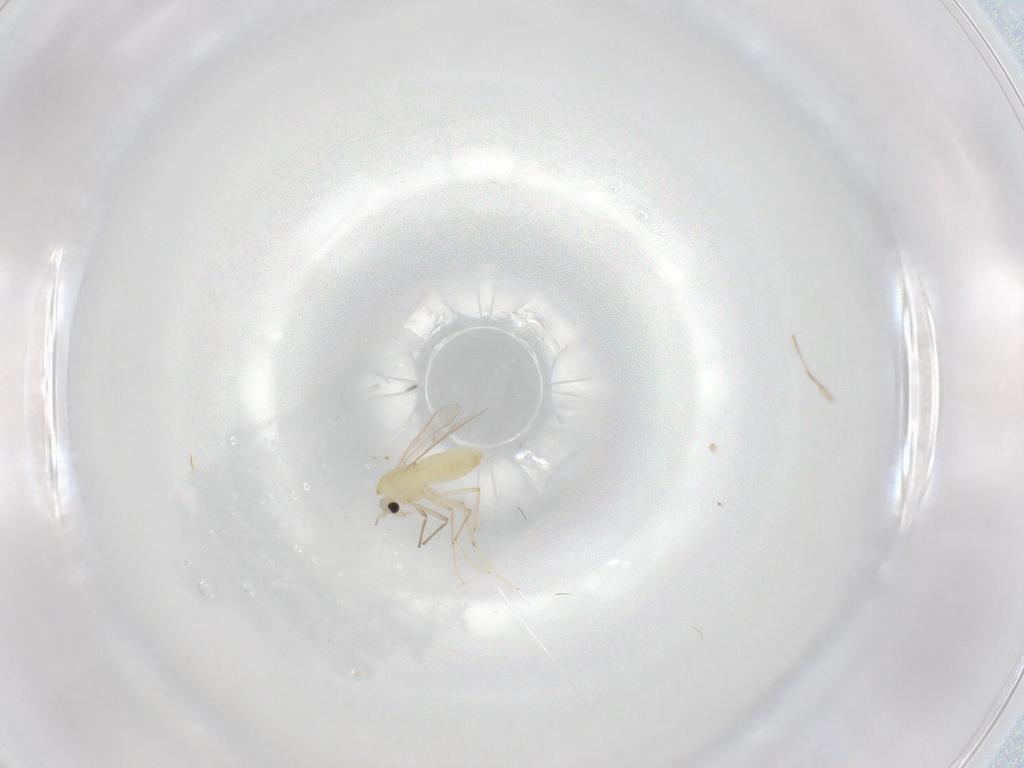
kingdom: Animalia
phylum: Arthropoda
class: Insecta
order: Diptera
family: Chironomidae
